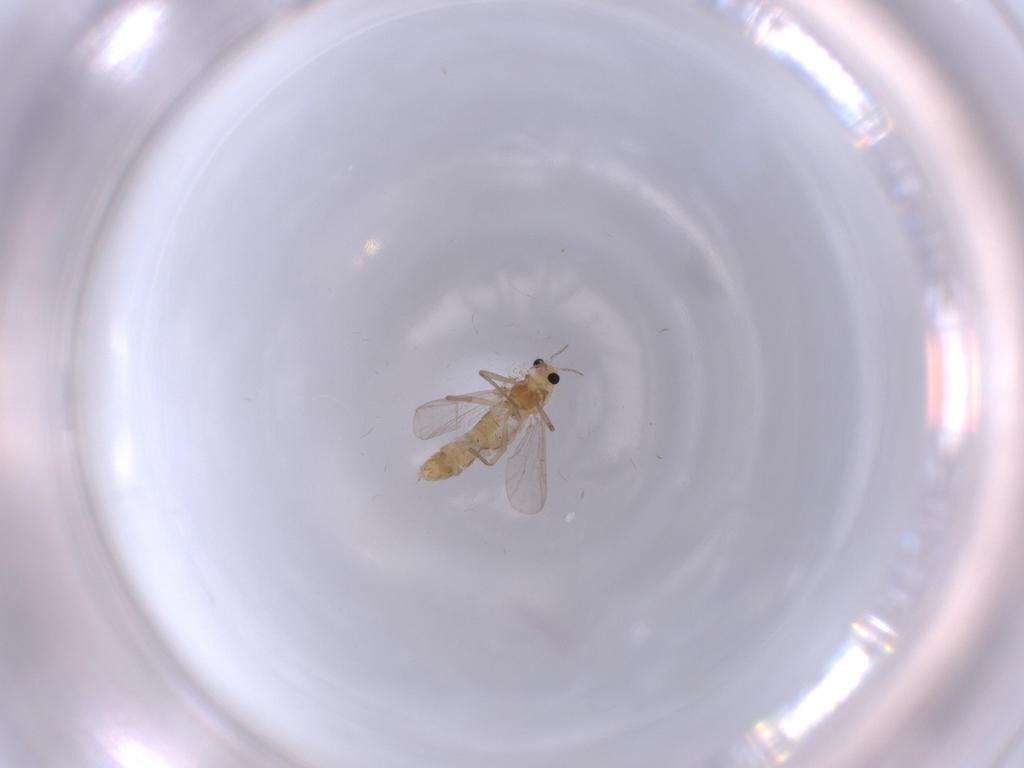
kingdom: Animalia
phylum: Arthropoda
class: Insecta
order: Diptera
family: Chironomidae
